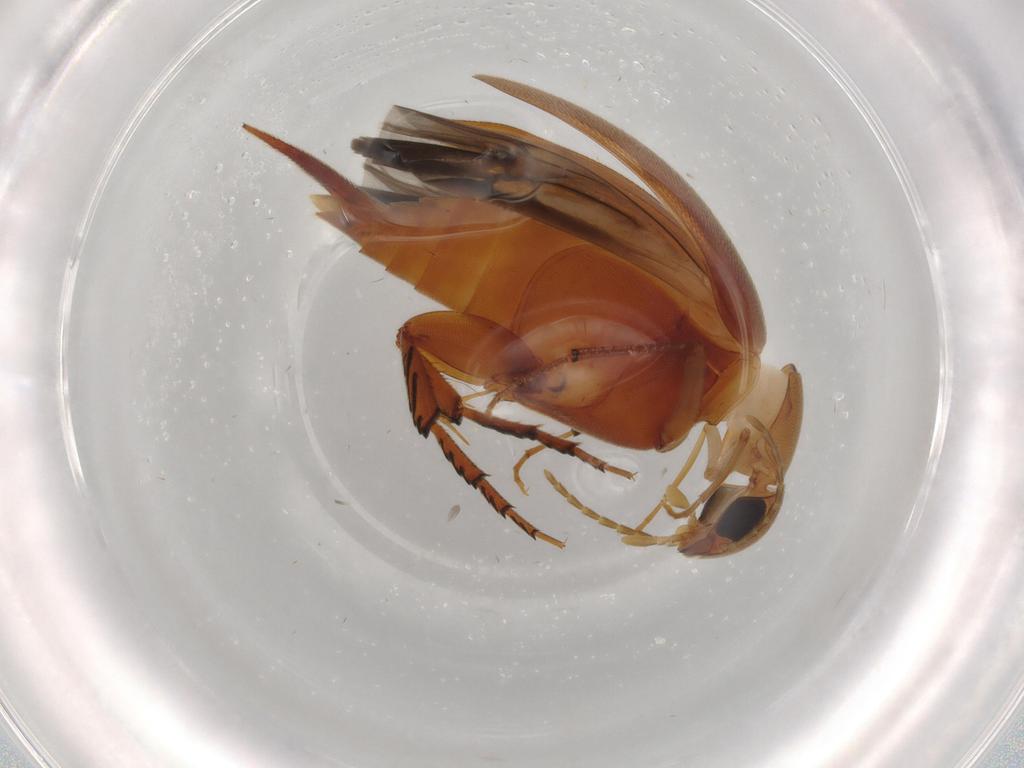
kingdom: Animalia
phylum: Arthropoda
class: Insecta
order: Coleoptera
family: Mordellidae
